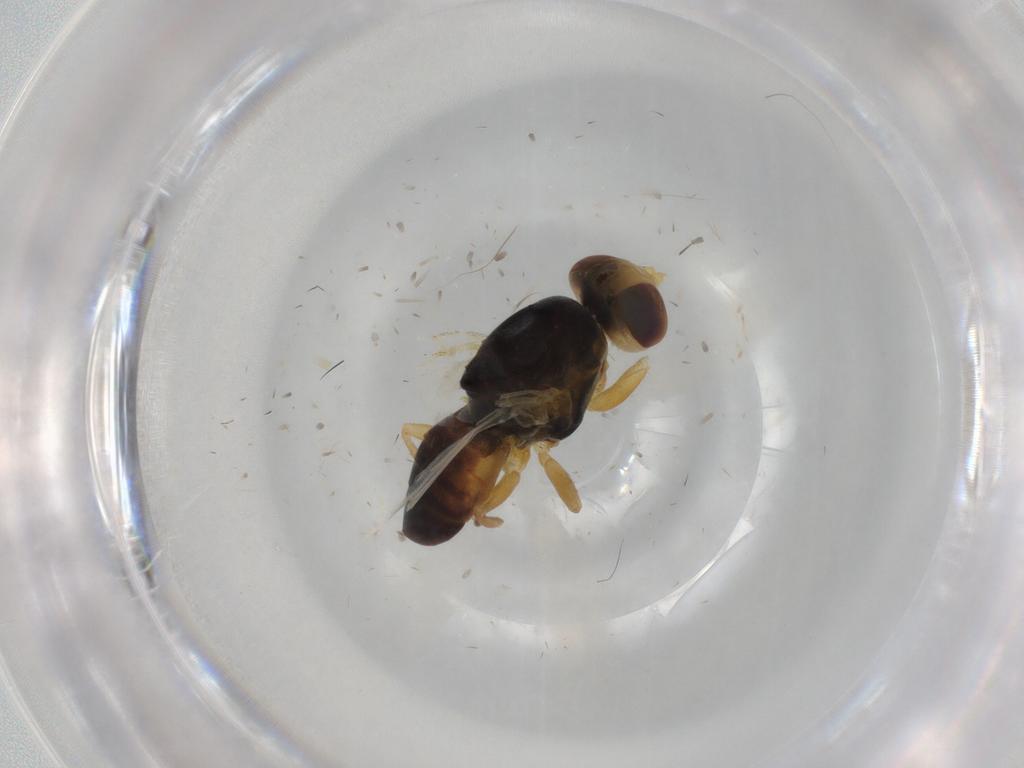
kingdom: Animalia
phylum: Arthropoda
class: Insecta
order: Diptera
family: Tephritidae
